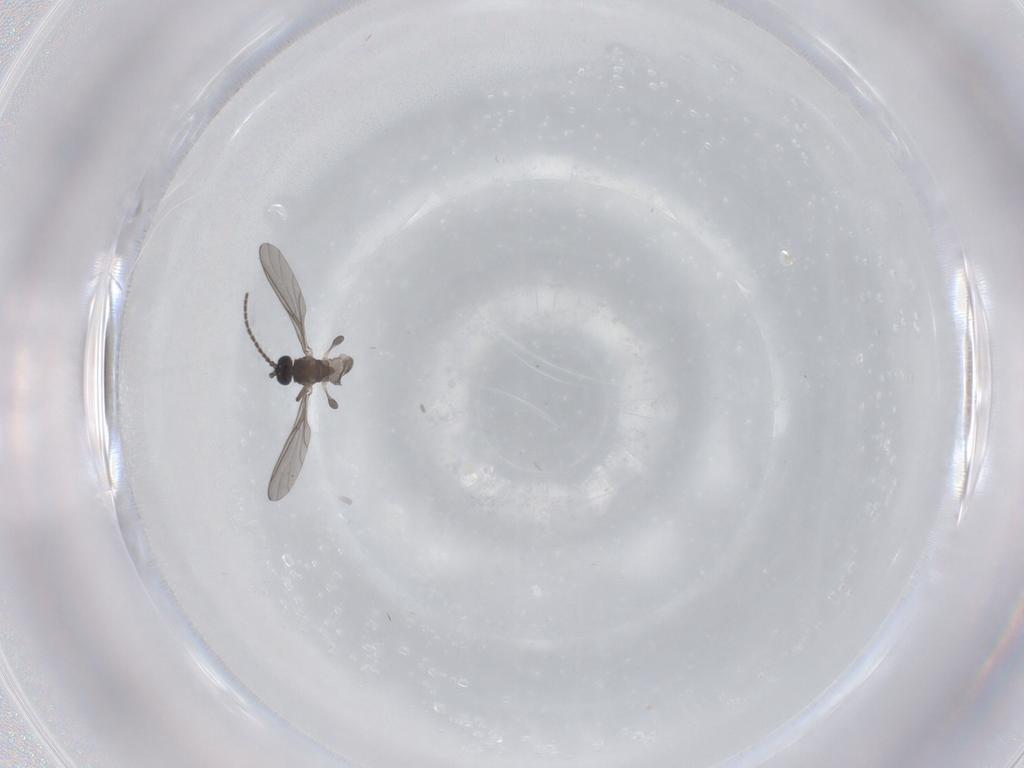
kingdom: Animalia
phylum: Arthropoda
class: Insecta
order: Diptera
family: Sciaridae
